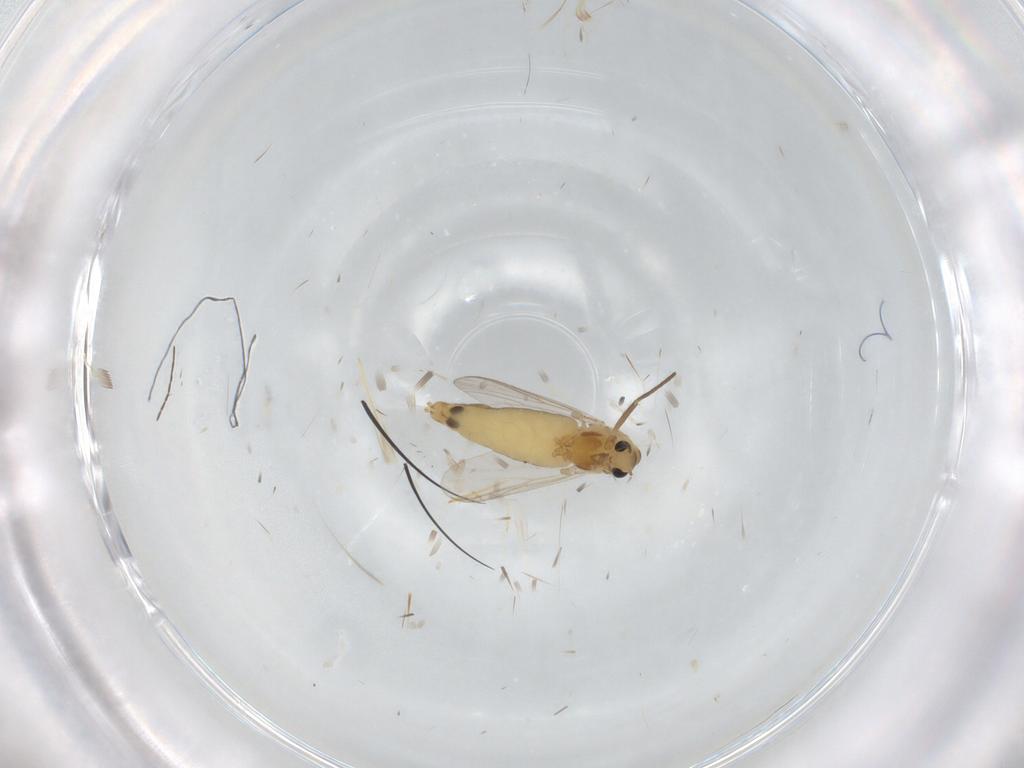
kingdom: Animalia
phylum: Arthropoda
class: Insecta
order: Diptera
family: Chironomidae
